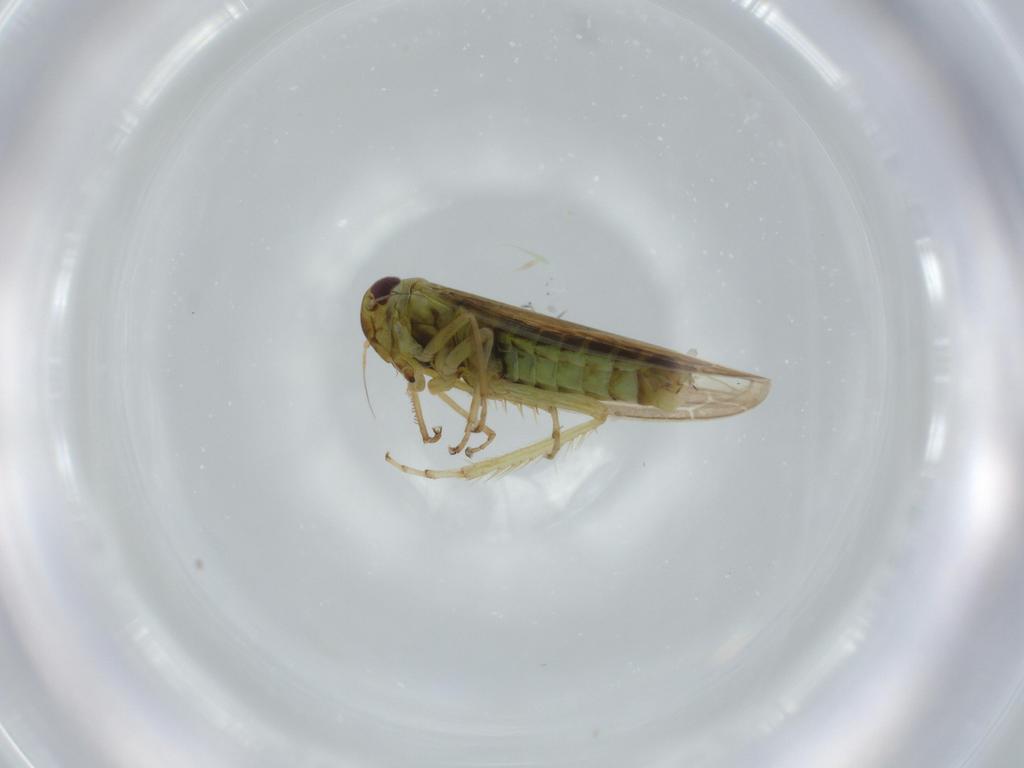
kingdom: Animalia
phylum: Arthropoda
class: Insecta
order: Hemiptera
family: Cicadellidae
